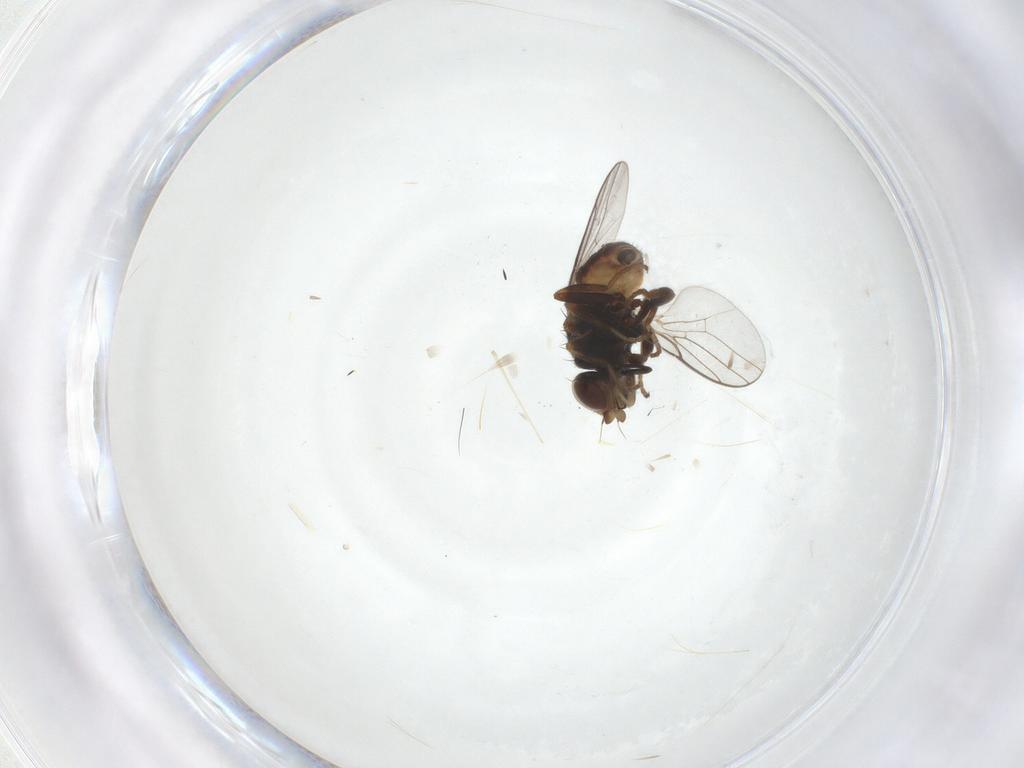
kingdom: Animalia
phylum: Arthropoda
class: Insecta
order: Diptera
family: Chloropidae
